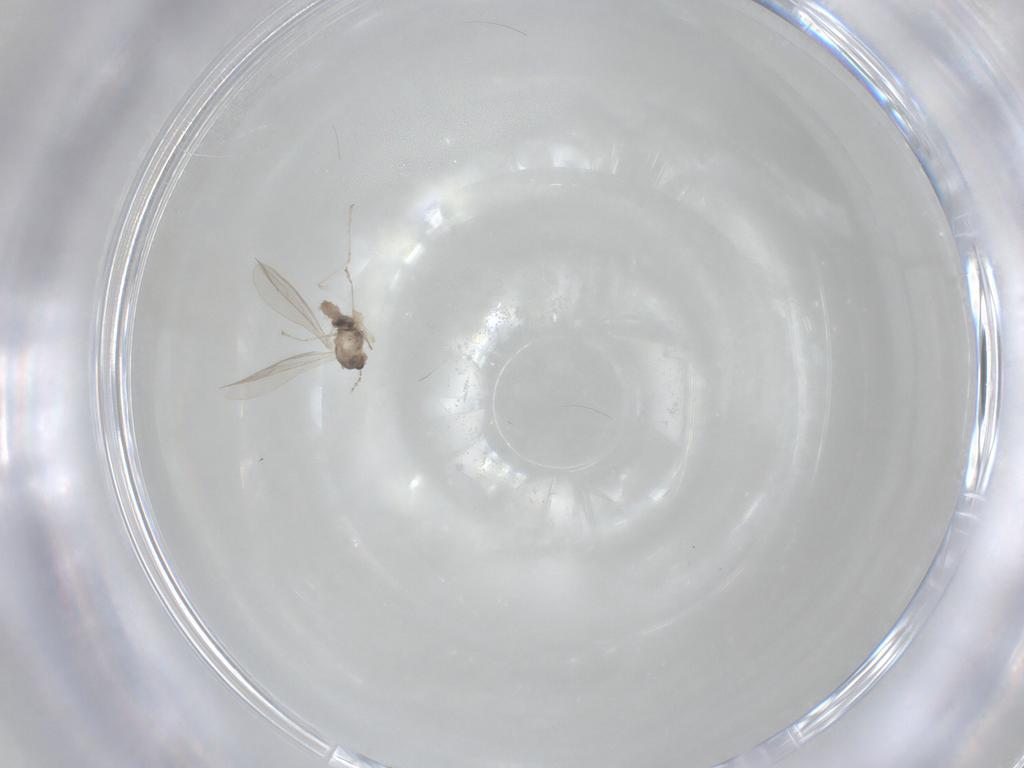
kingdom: Animalia
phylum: Arthropoda
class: Insecta
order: Diptera
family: Cecidomyiidae
